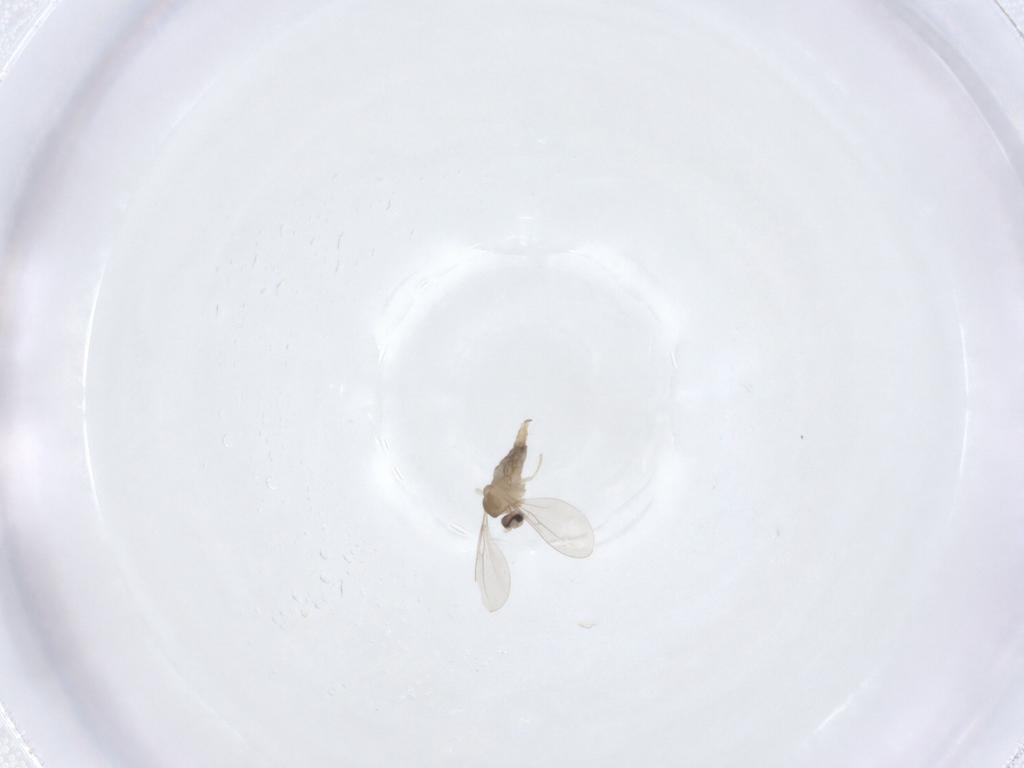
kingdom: Animalia
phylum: Arthropoda
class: Insecta
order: Diptera
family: Cecidomyiidae
